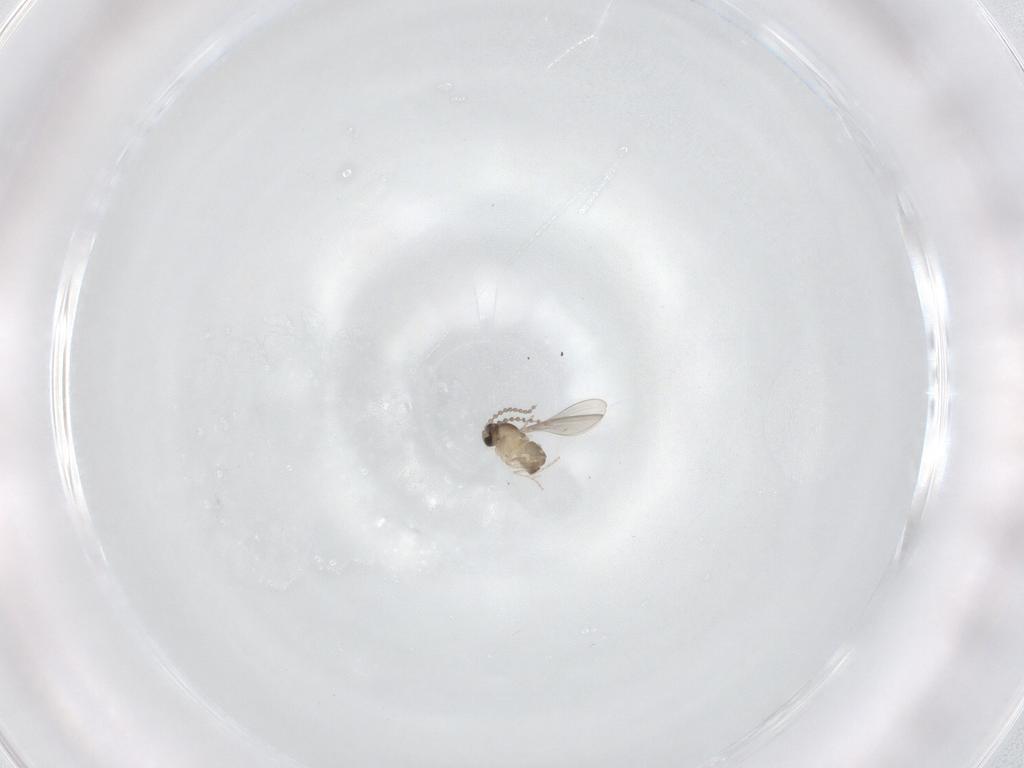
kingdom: Animalia
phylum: Arthropoda
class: Insecta
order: Diptera
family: Cecidomyiidae
